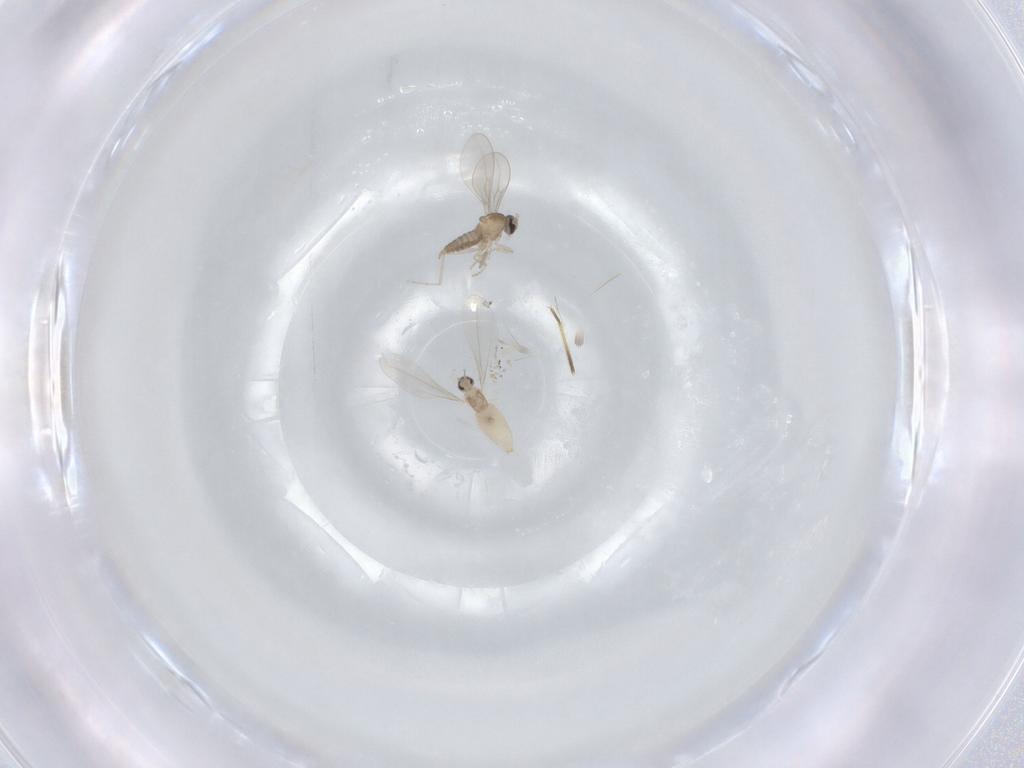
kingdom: Animalia
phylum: Arthropoda
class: Insecta
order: Diptera
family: Cecidomyiidae
